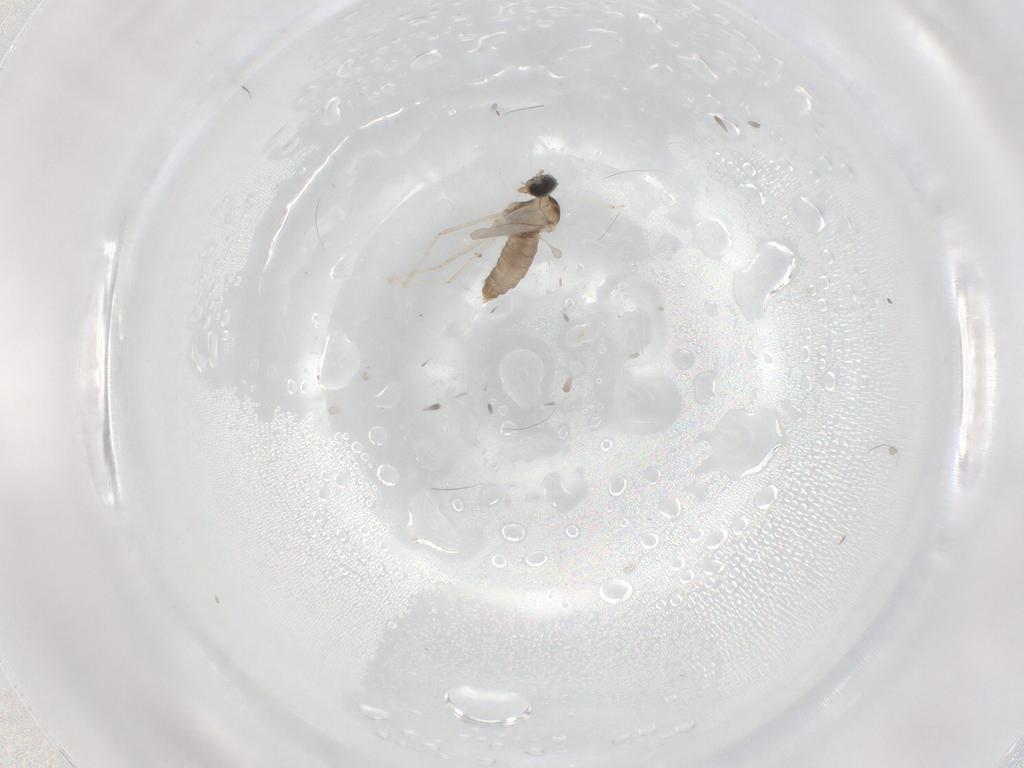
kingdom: Animalia
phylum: Arthropoda
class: Insecta
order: Diptera
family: Cecidomyiidae
